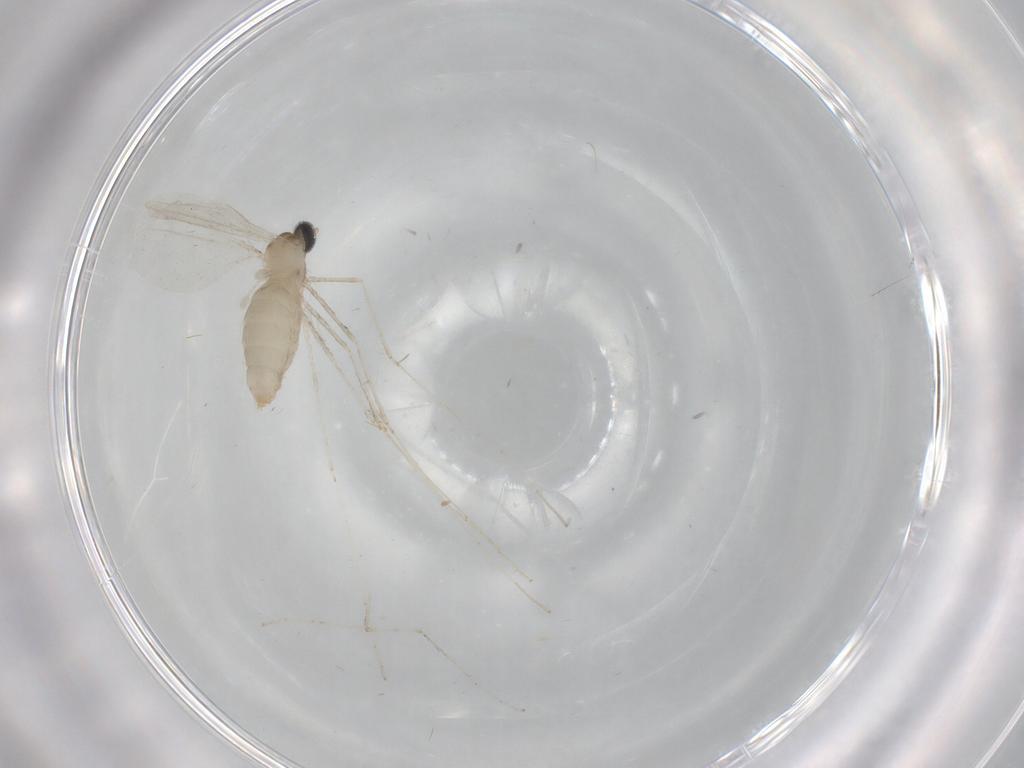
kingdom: Animalia
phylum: Arthropoda
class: Insecta
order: Diptera
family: Cecidomyiidae
